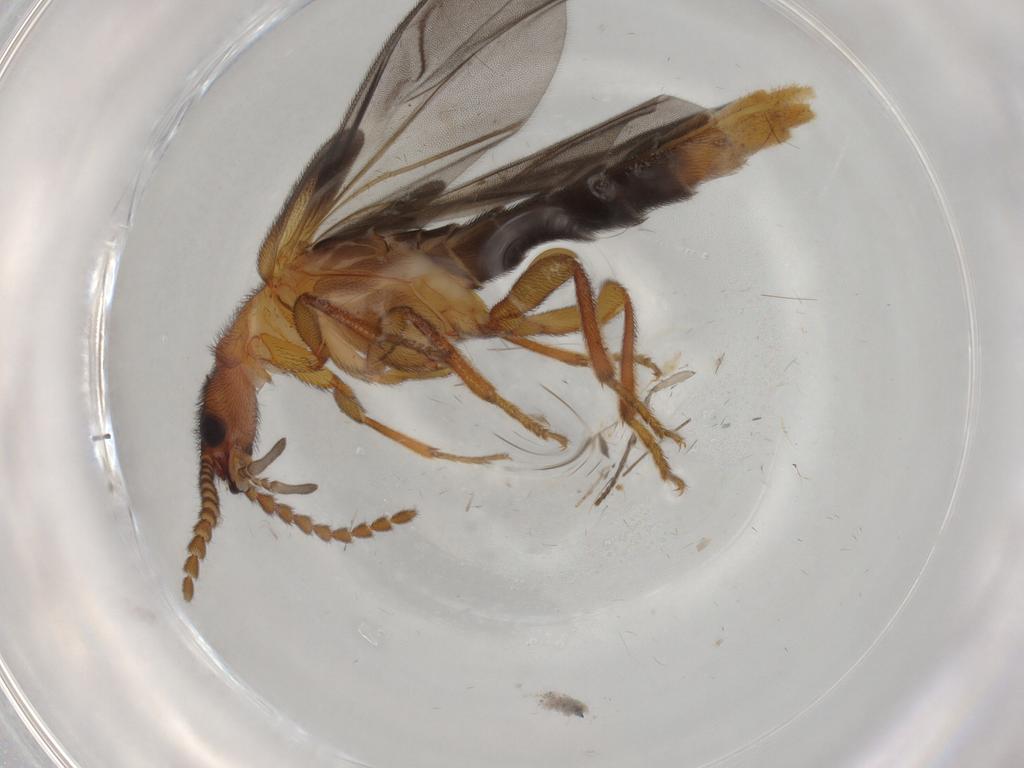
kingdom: Animalia
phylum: Arthropoda
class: Insecta
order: Coleoptera
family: Omethidae
